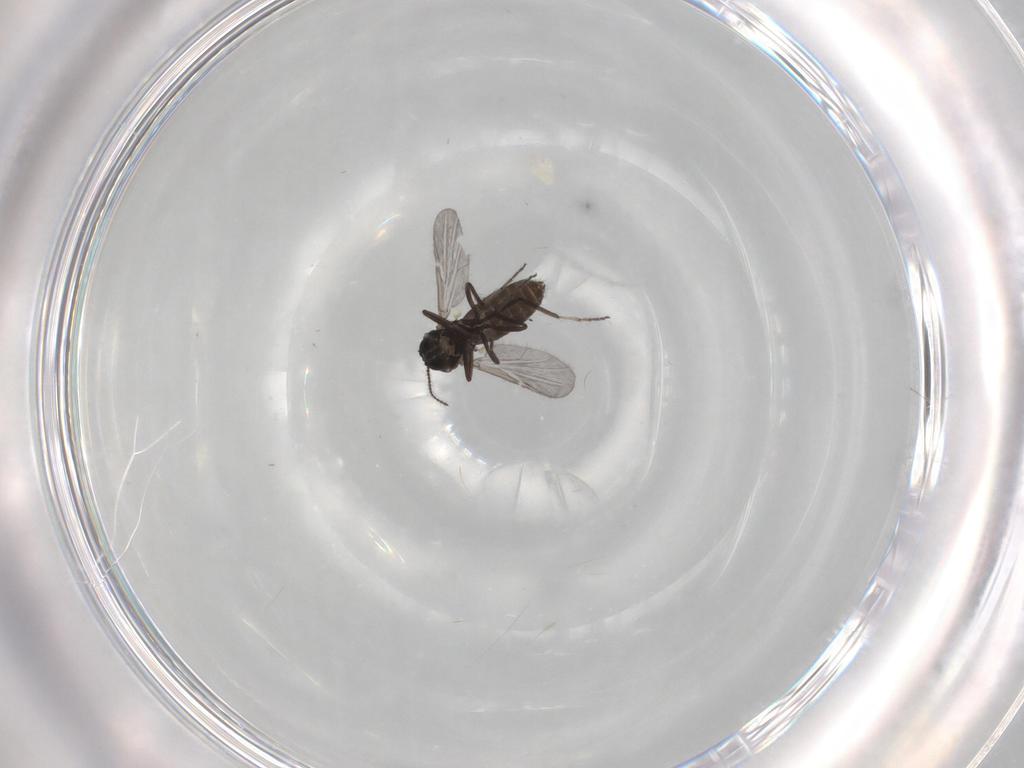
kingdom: Animalia
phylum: Arthropoda
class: Insecta
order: Diptera
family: Ceratopogonidae
